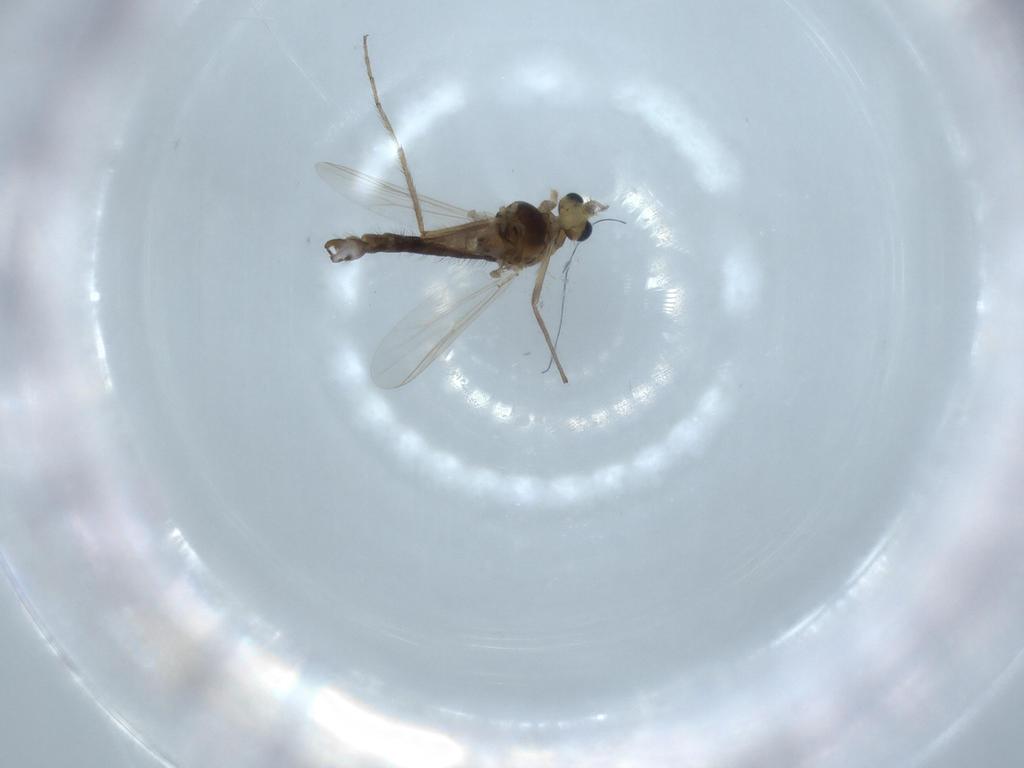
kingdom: Animalia
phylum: Arthropoda
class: Insecta
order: Diptera
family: Chironomidae
